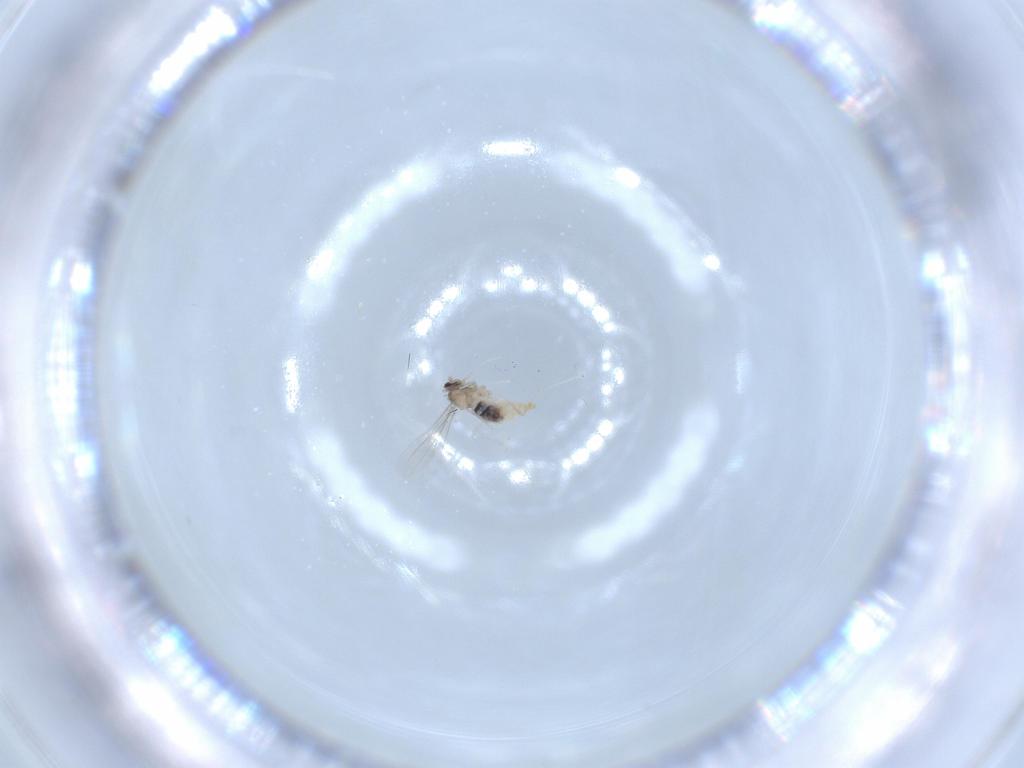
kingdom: Animalia
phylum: Arthropoda
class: Insecta
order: Diptera
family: Cecidomyiidae
